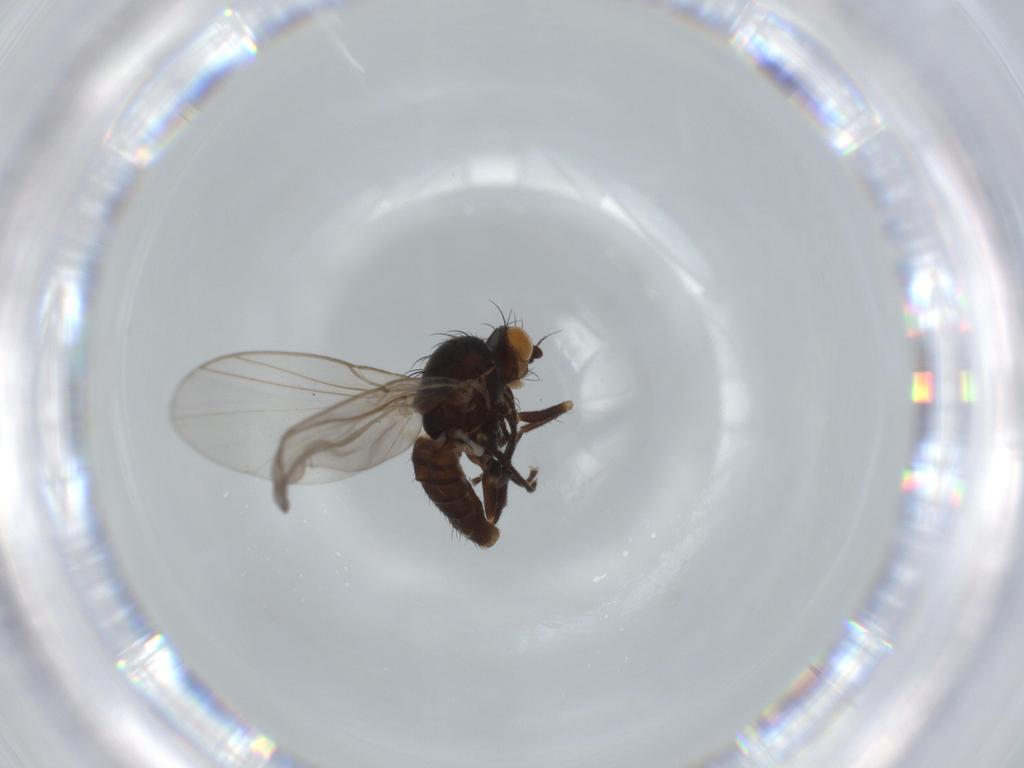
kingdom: Animalia
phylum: Arthropoda
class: Insecta
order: Diptera
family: Agromyzidae
